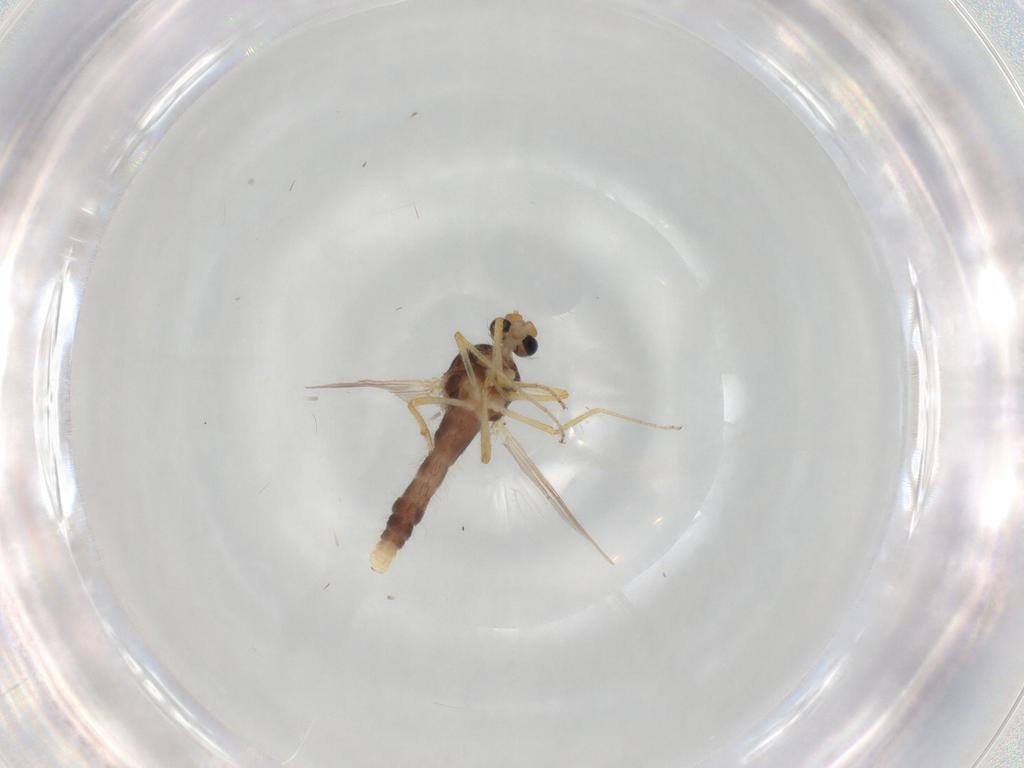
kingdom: Animalia
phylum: Arthropoda
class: Insecta
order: Diptera
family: Ceratopogonidae
